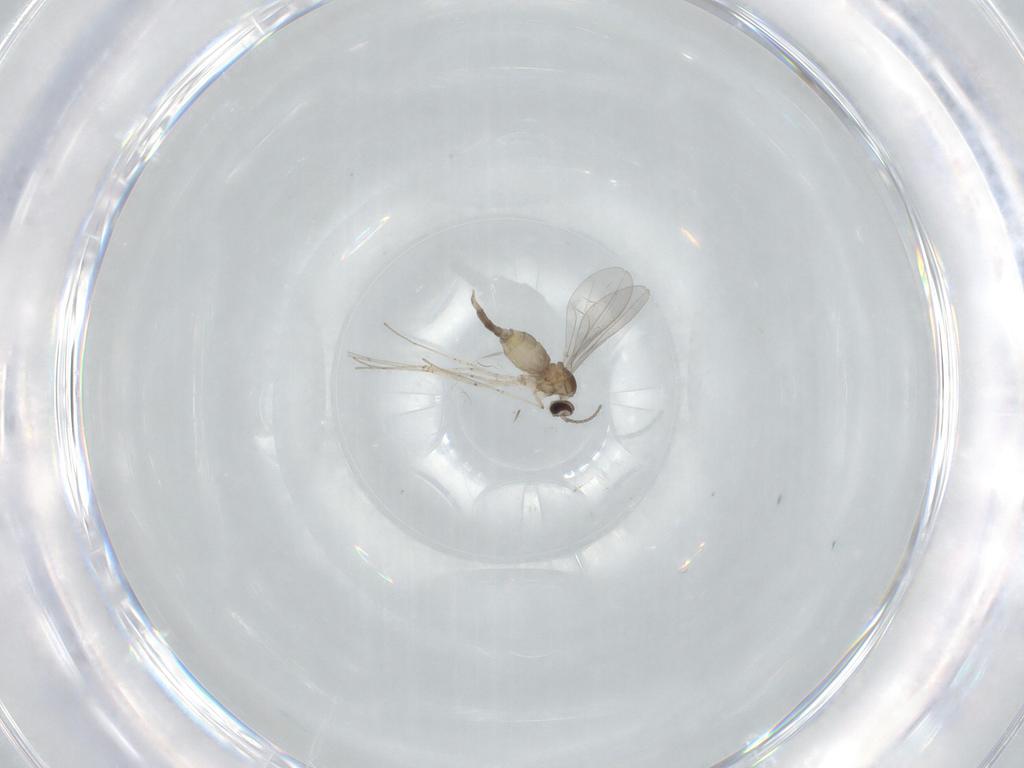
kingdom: Animalia
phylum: Arthropoda
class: Insecta
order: Diptera
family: Cecidomyiidae
